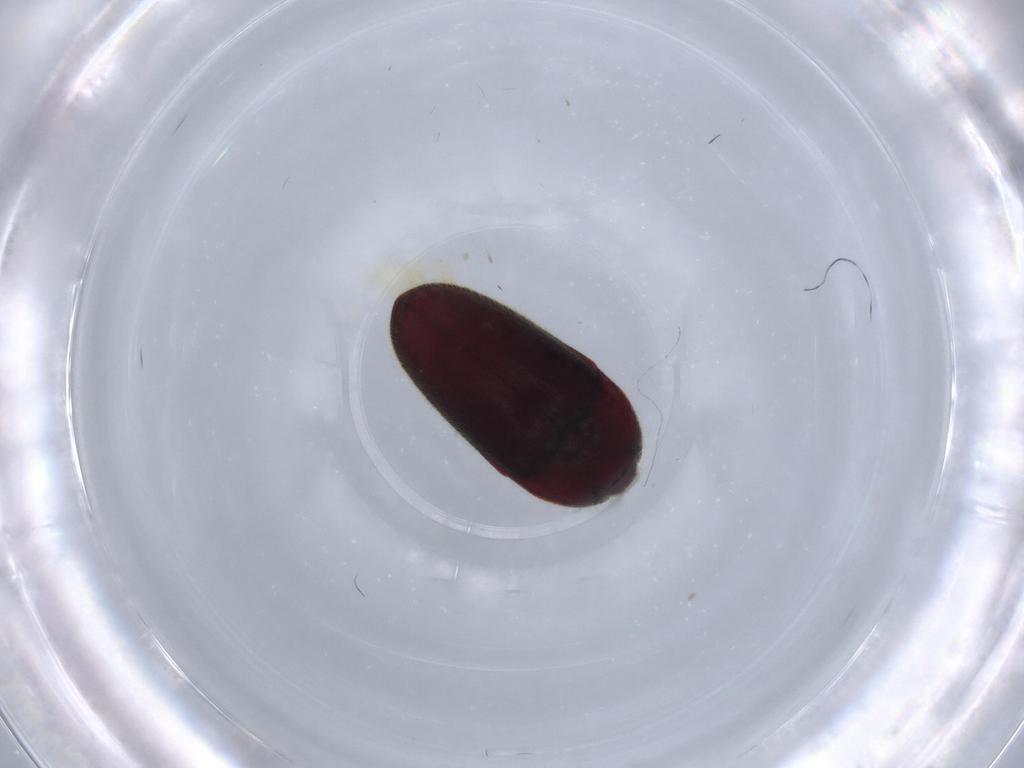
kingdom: Animalia
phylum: Arthropoda
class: Insecta
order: Coleoptera
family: Throscidae
